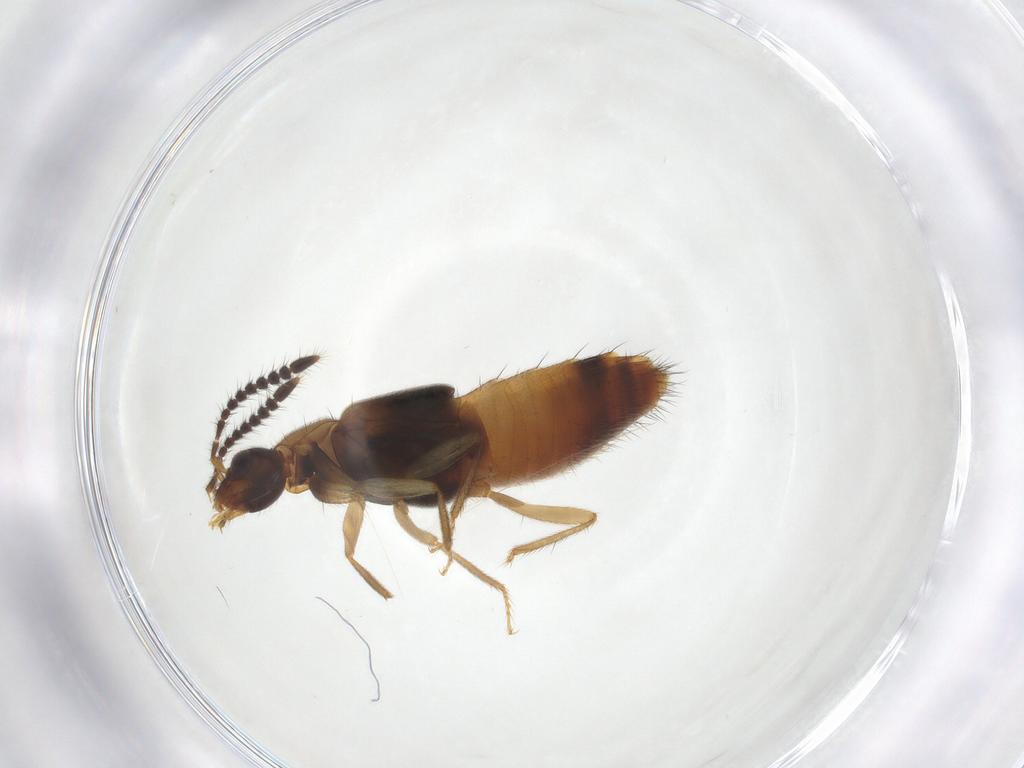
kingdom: Animalia
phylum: Arthropoda
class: Insecta
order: Coleoptera
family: Staphylinidae
